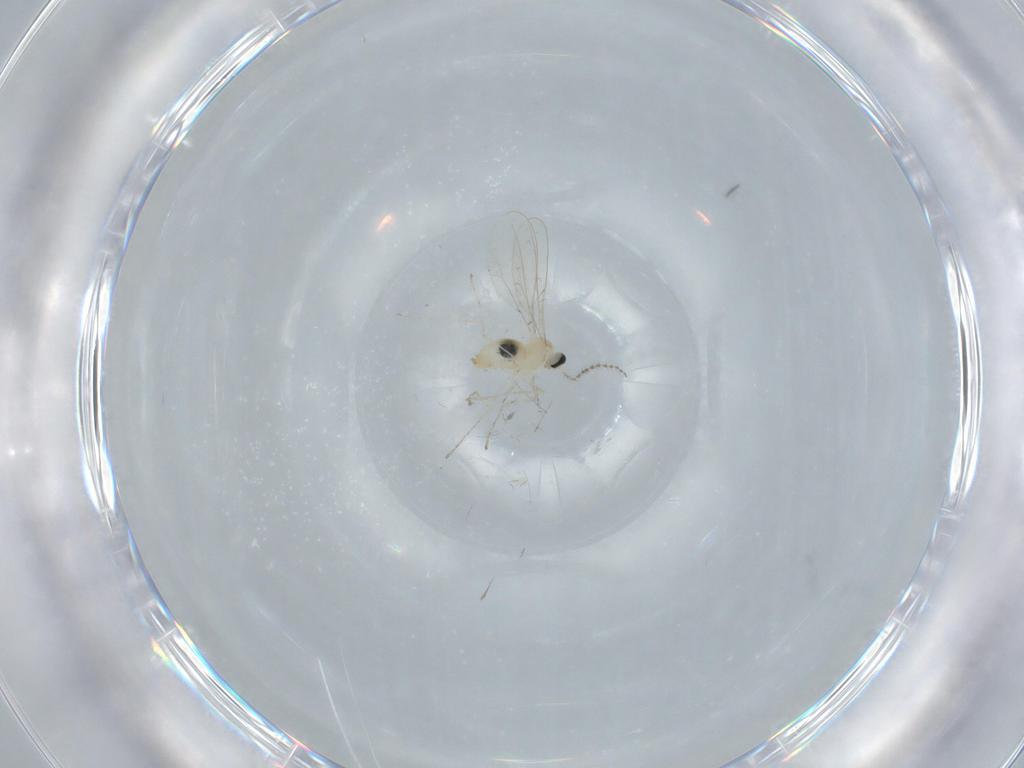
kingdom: Animalia
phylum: Arthropoda
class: Insecta
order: Diptera
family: Cecidomyiidae
